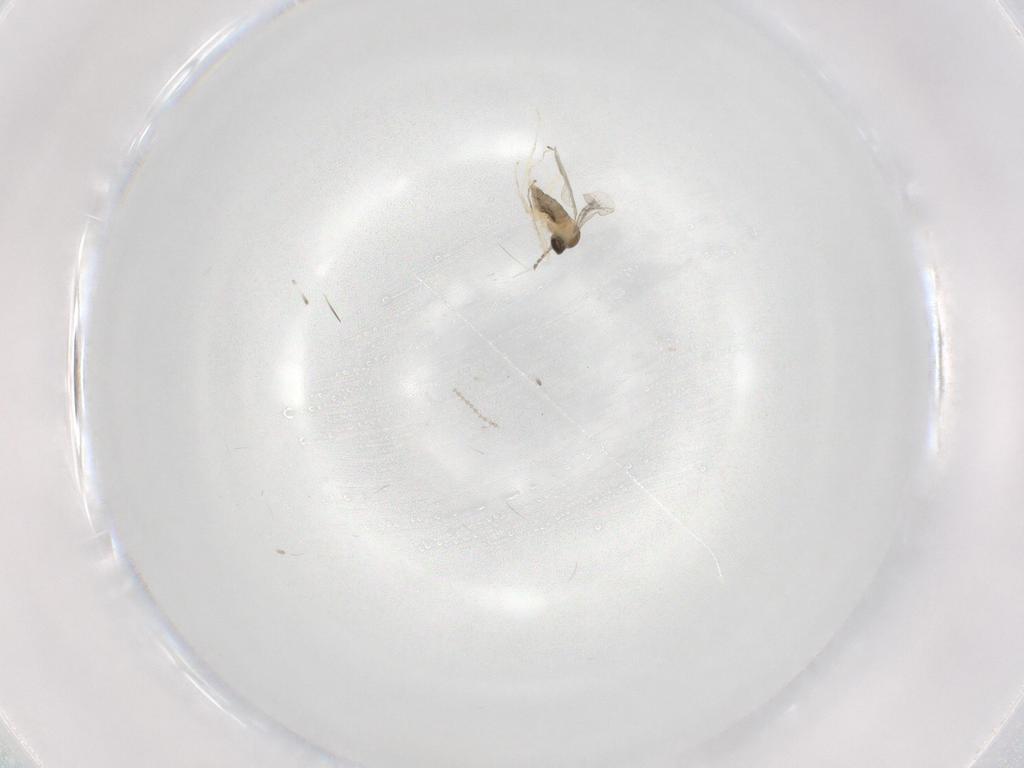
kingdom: Animalia
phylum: Arthropoda
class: Insecta
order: Diptera
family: Cecidomyiidae
